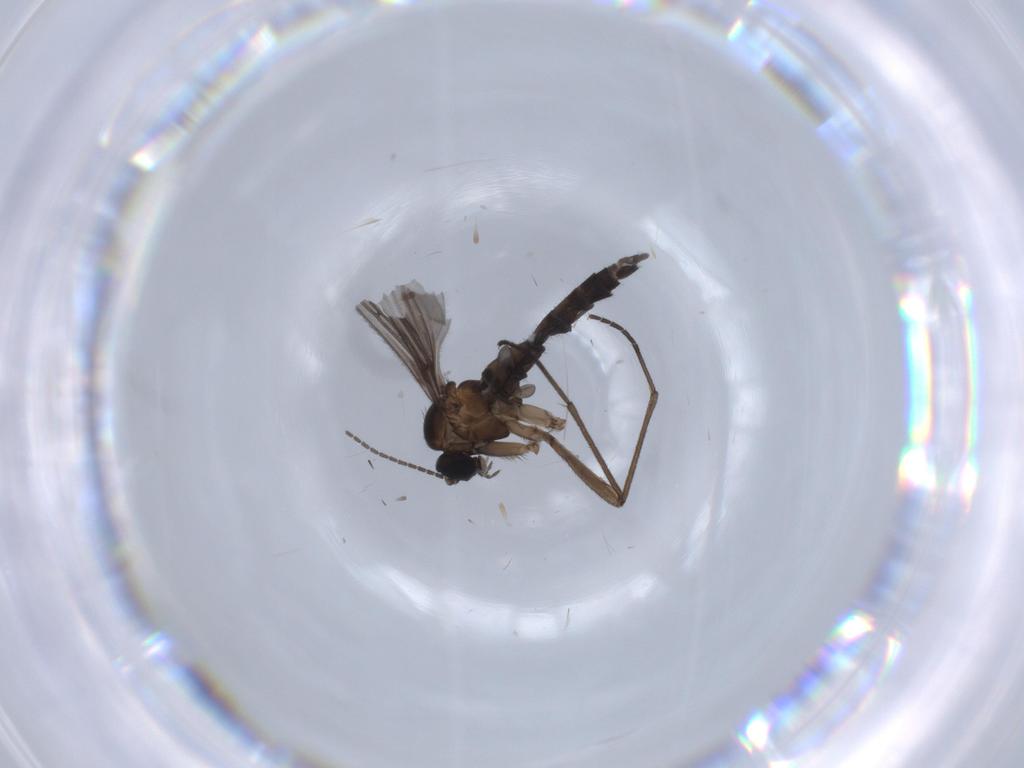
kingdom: Animalia
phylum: Arthropoda
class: Insecta
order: Diptera
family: Sciaridae
